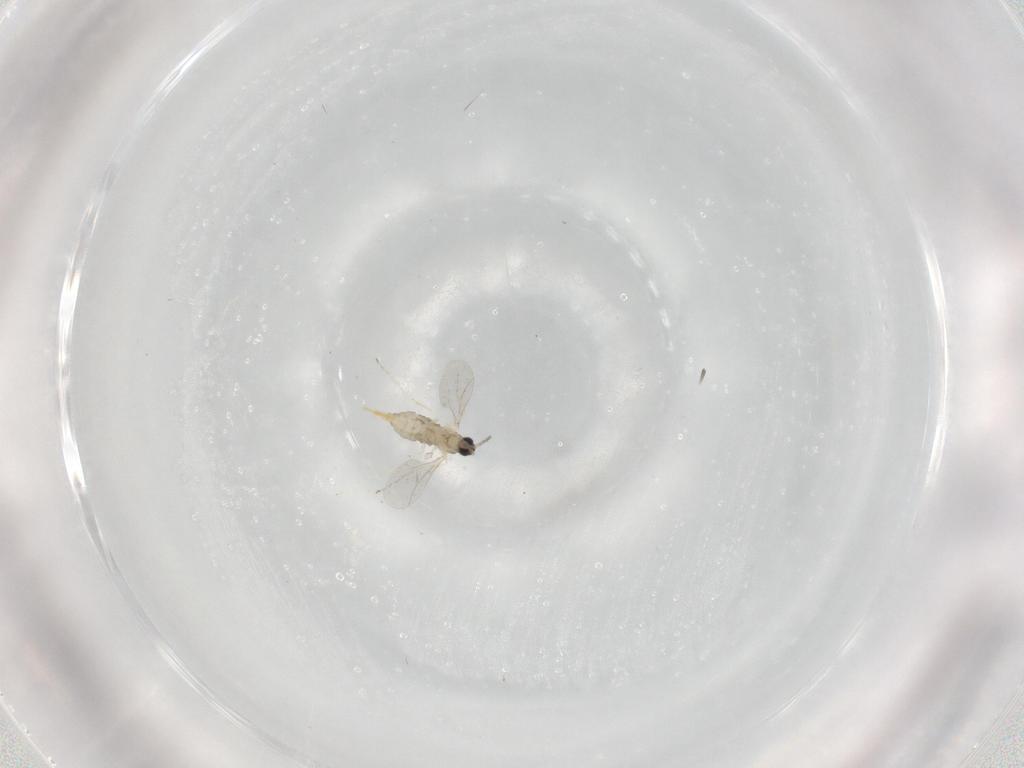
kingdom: Animalia
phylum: Arthropoda
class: Insecta
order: Diptera
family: Cecidomyiidae
